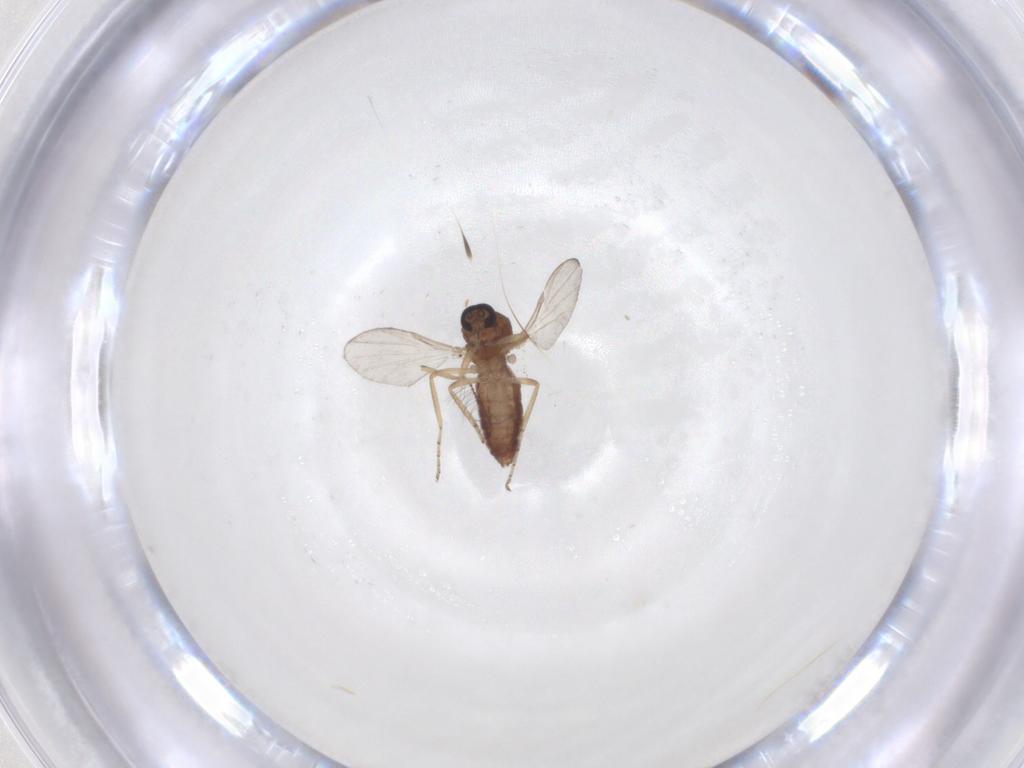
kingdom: Animalia
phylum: Arthropoda
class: Insecta
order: Diptera
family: Ceratopogonidae
